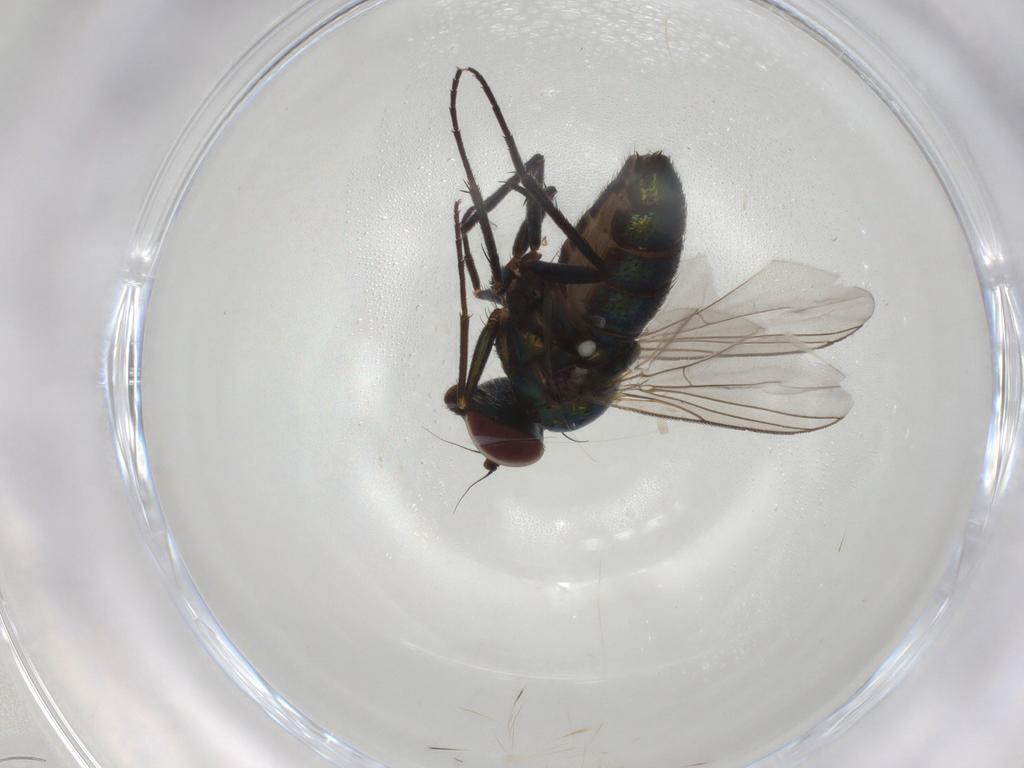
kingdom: Animalia
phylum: Arthropoda
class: Insecta
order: Diptera
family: Dolichopodidae
